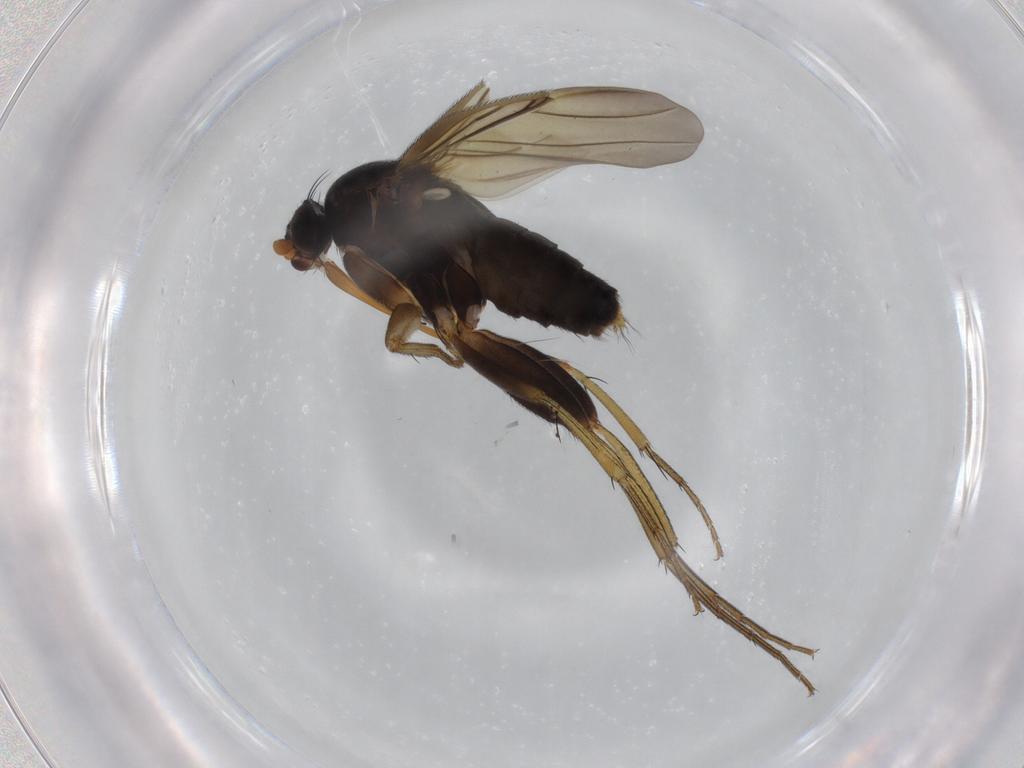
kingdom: Animalia
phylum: Arthropoda
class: Insecta
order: Diptera
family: Phoridae
